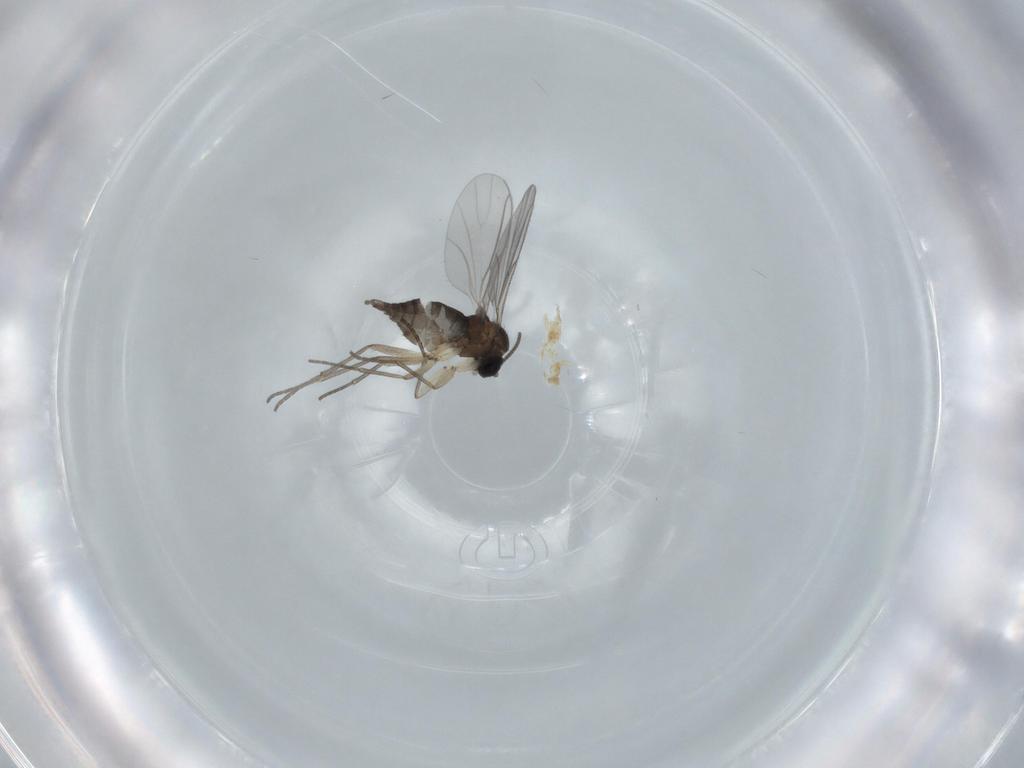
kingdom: Animalia
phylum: Arthropoda
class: Insecta
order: Diptera
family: Sciaridae
